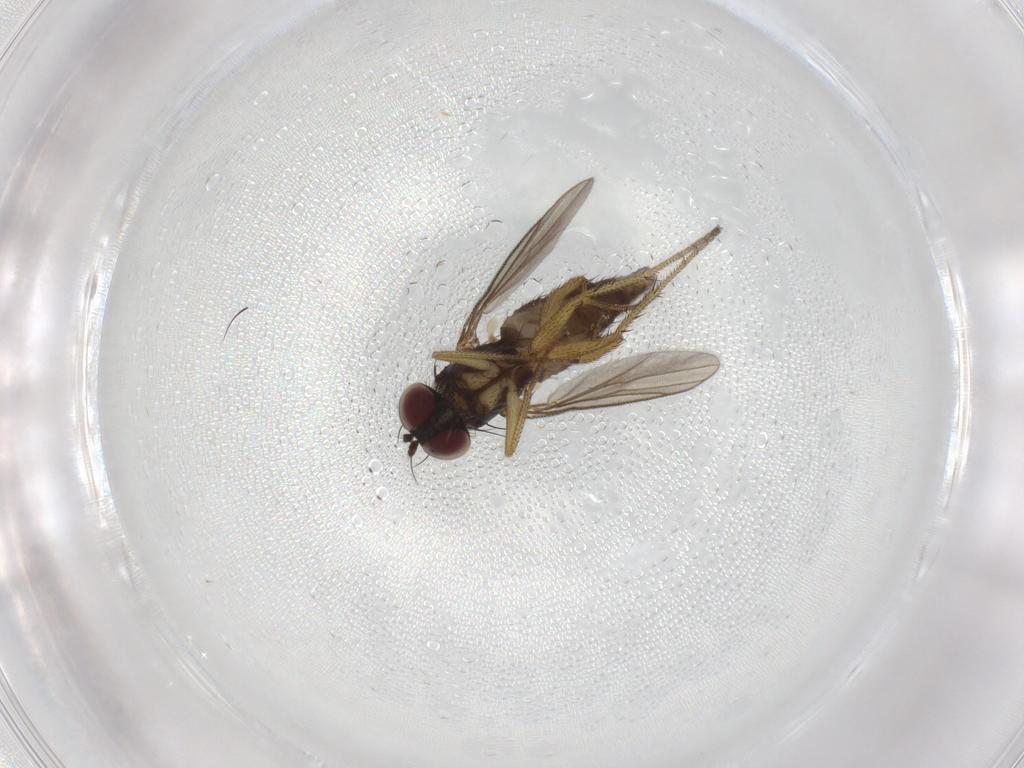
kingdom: Animalia
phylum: Arthropoda
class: Insecta
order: Diptera
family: Dolichopodidae
